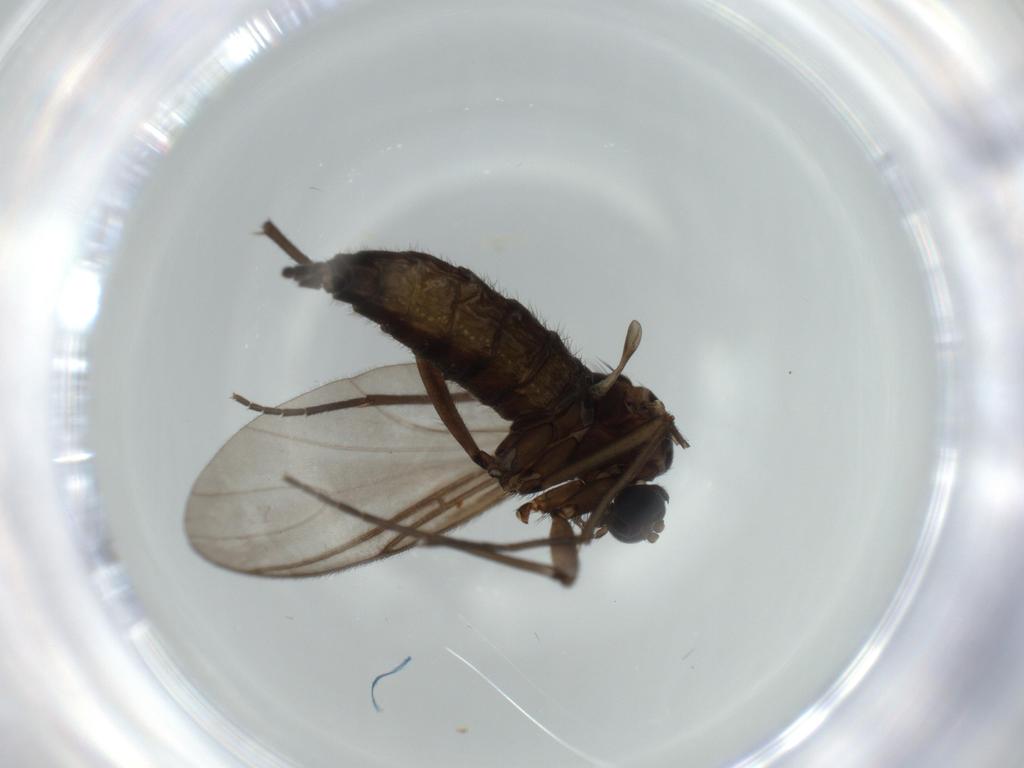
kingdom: Animalia
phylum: Arthropoda
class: Insecta
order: Diptera
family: Sciaridae
